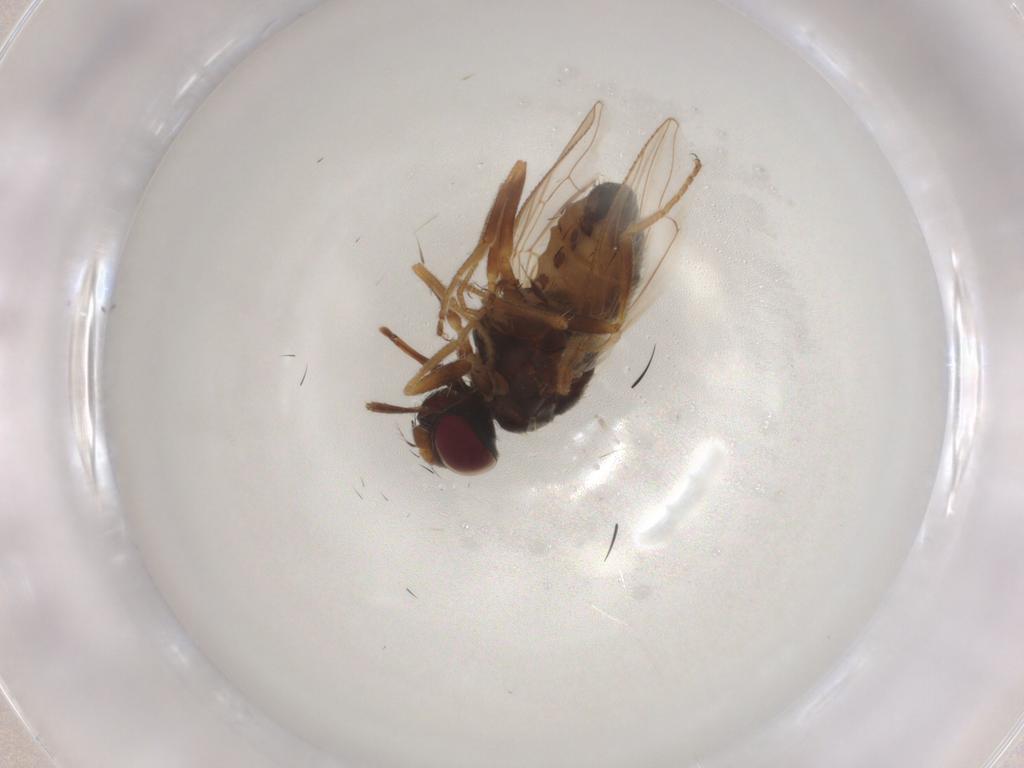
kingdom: Animalia
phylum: Arthropoda
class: Insecta
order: Diptera
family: Muscidae
